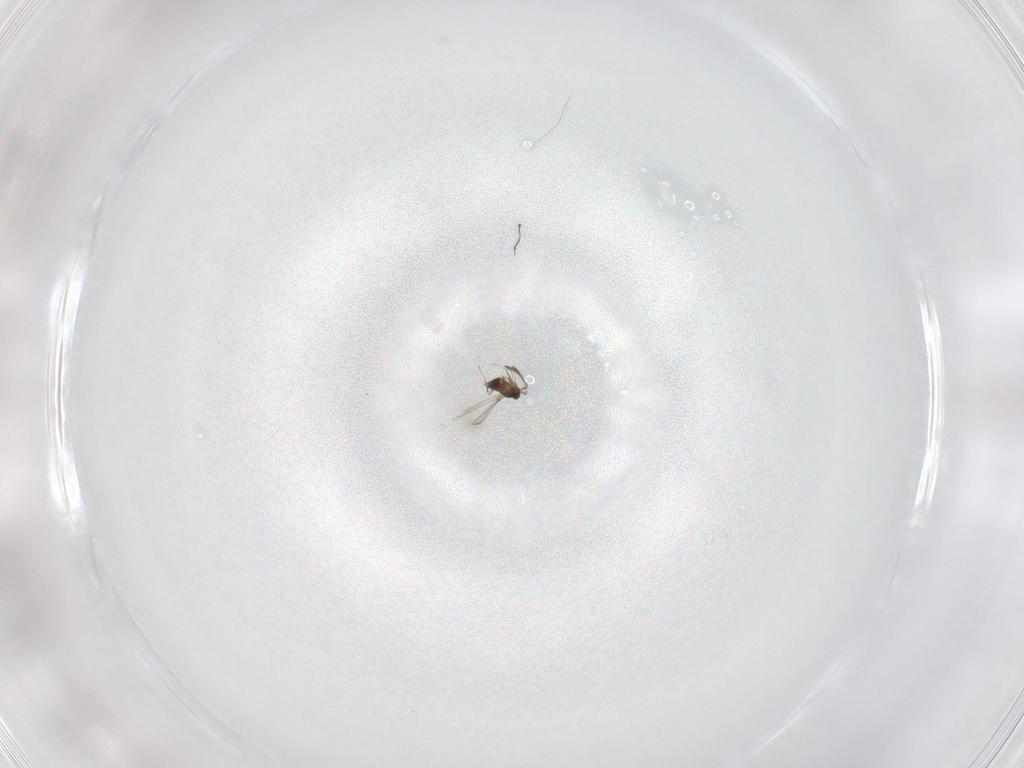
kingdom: Animalia
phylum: Arthropoda
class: Insecta
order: Hymenoptera
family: Mymaridae
